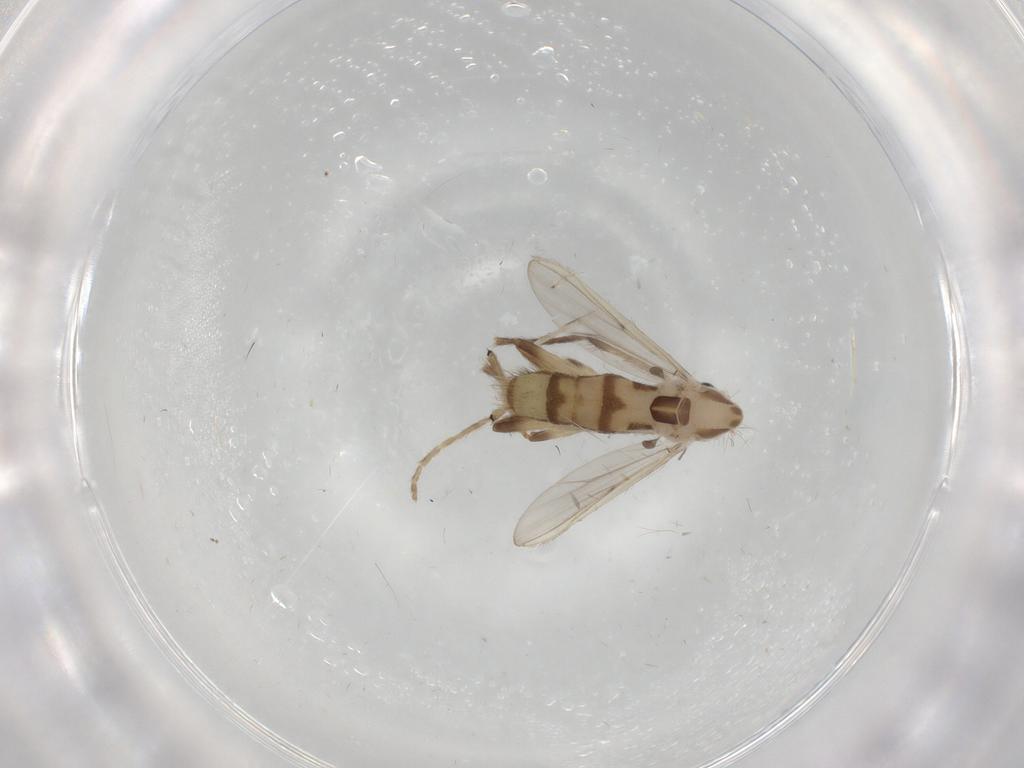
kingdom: Animalia
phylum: Arthropoda
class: Insecta
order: Diptera
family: Chironomidae
